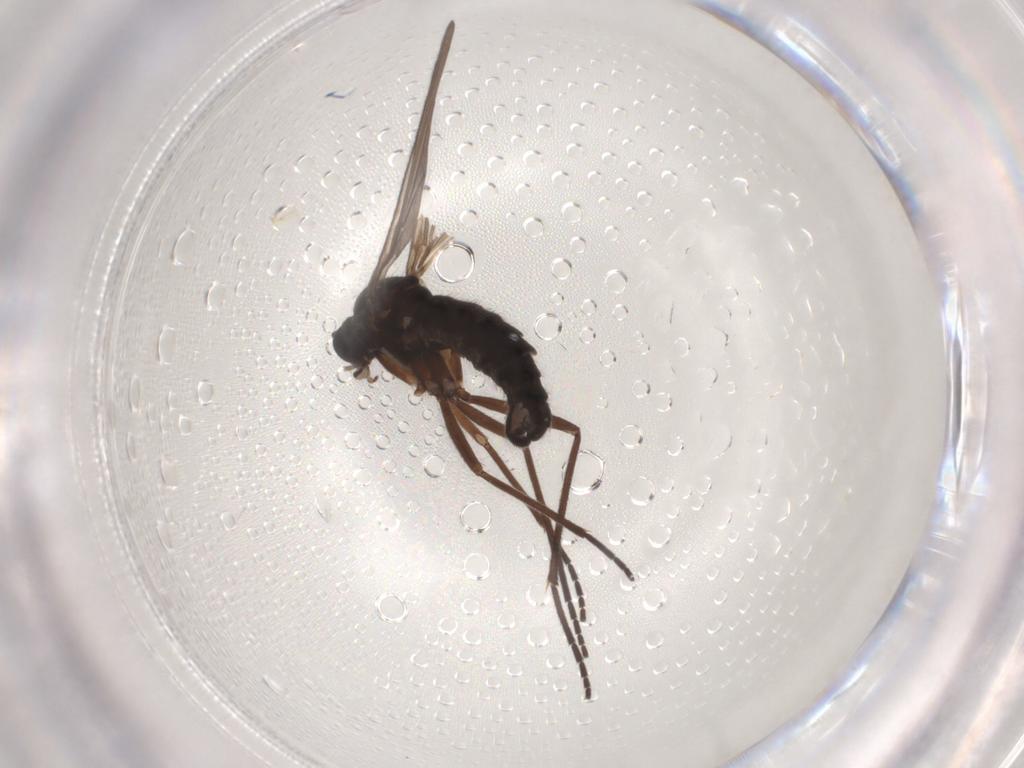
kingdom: Animalia
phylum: Arthropoda
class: Insecta
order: Diptera
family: Sciaridae
